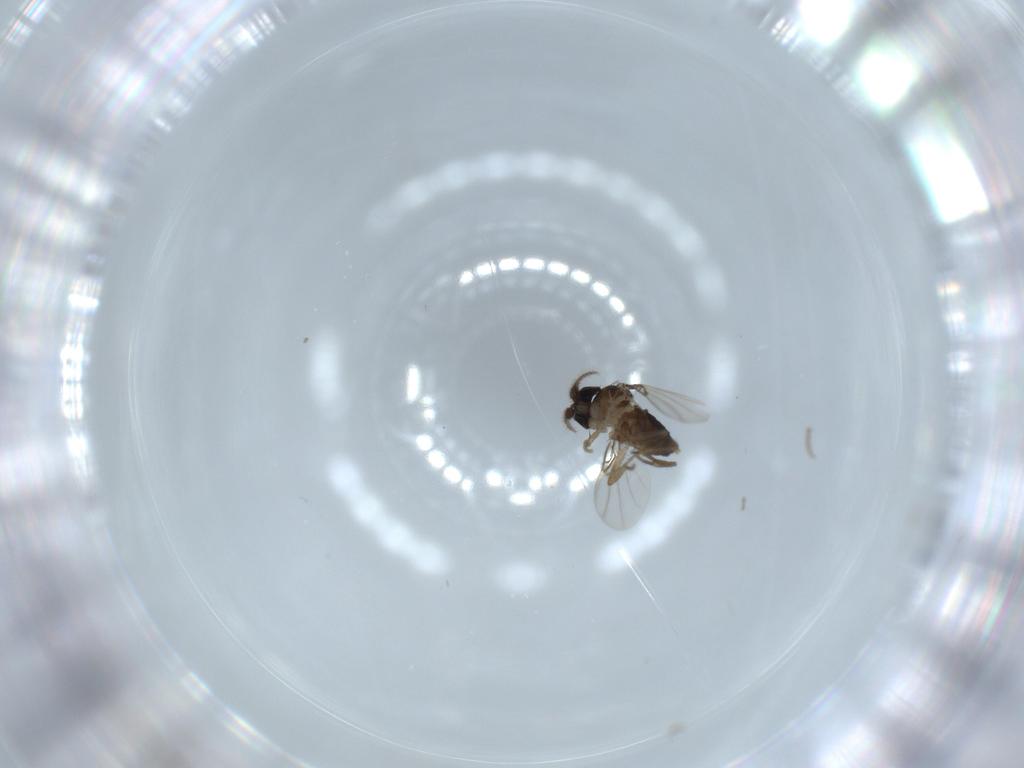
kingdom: Animalia
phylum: Arthropoda
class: Insecta
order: Diptera
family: Phoridae
